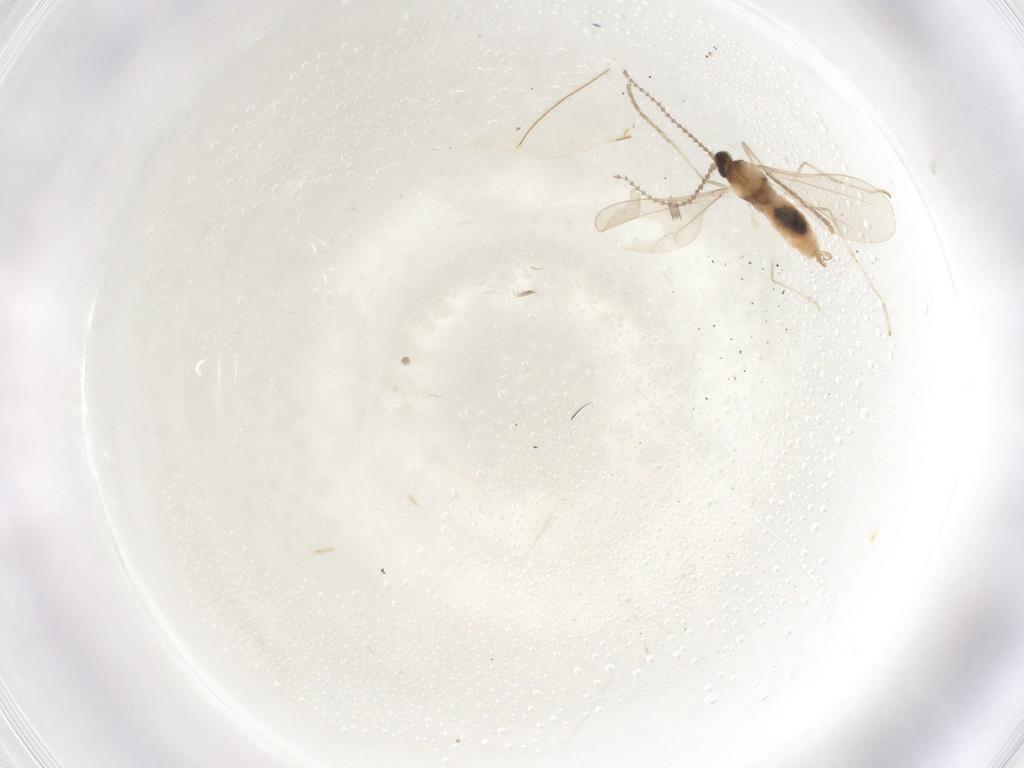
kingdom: Animalia
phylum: Arthropoda
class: Insecta
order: Diptera
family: Cecidomyiidae
